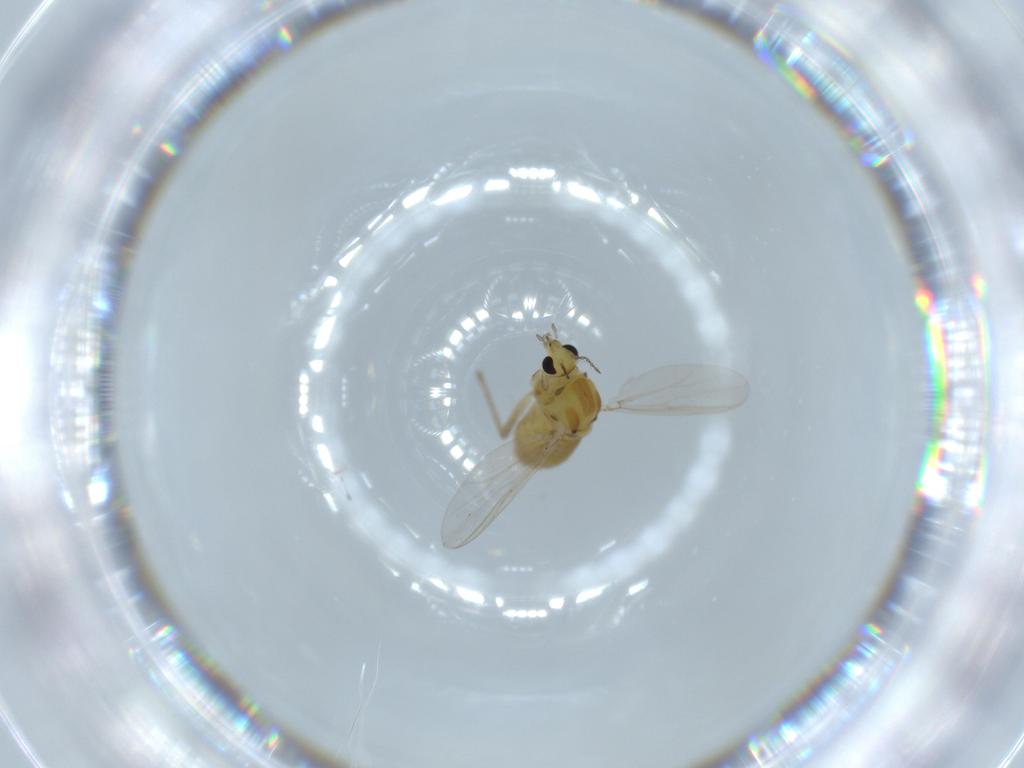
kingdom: Animalia
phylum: Arthropoda
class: Insecta
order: Diptera
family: Chironomidae
